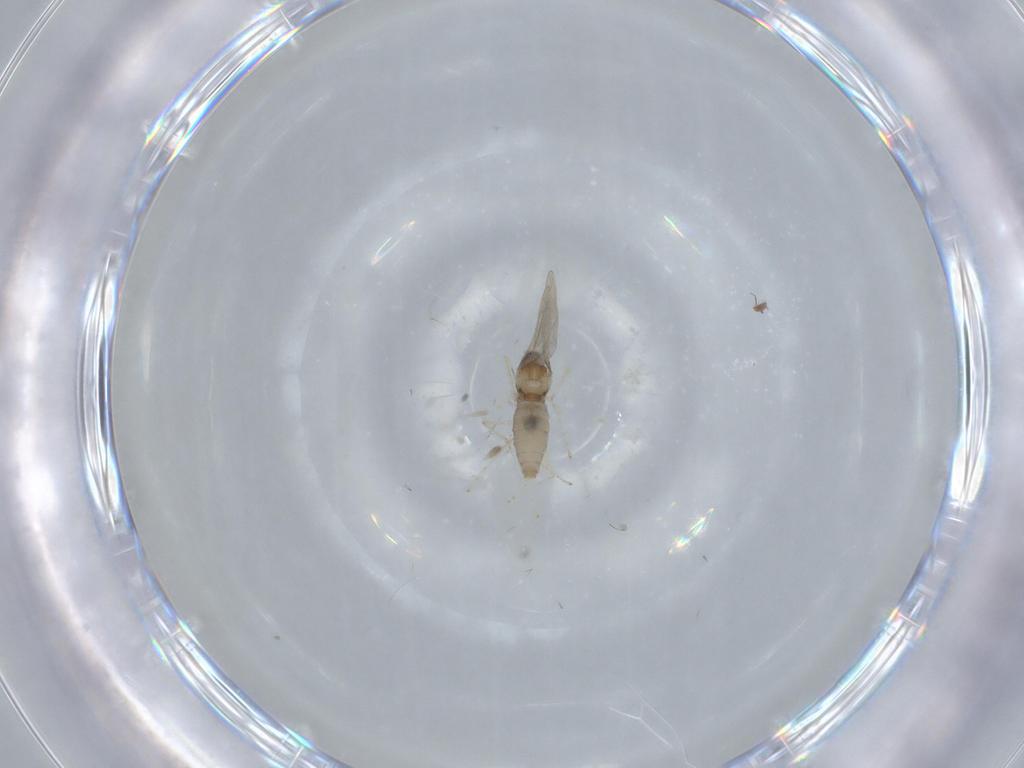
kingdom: Animalia
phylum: Arthropoda
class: Insecta
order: Diptera
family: Cecidomyiidae
